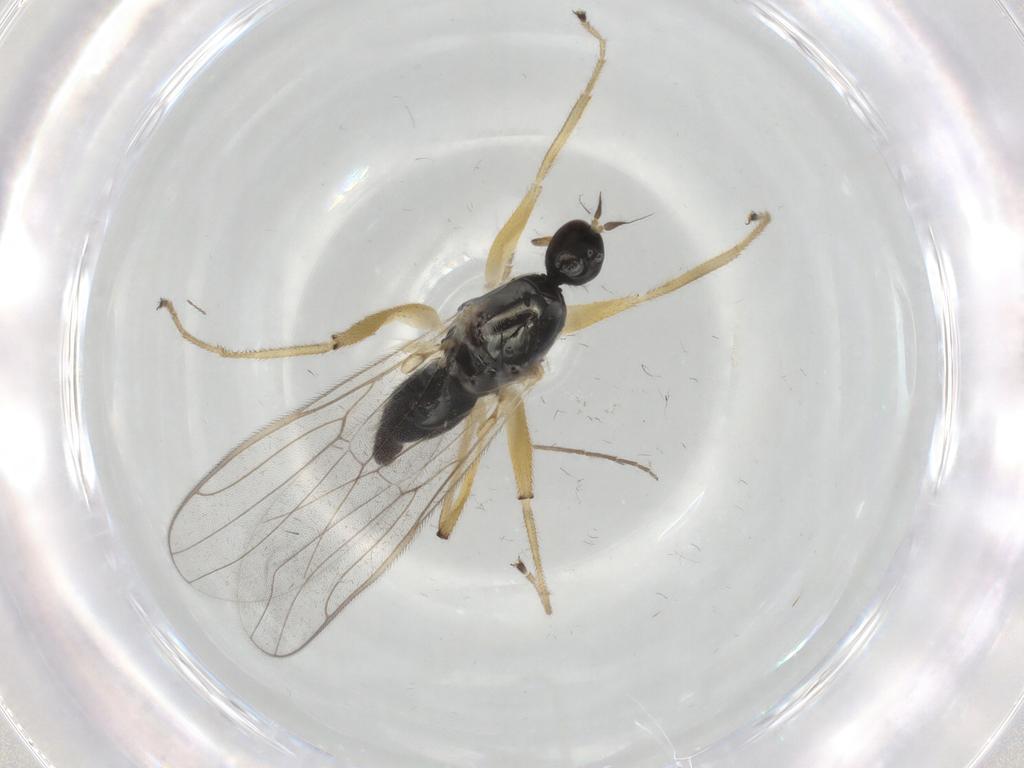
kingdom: Animalia
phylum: Arthropoda
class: Insecta
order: Diptera
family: Hybotidae
